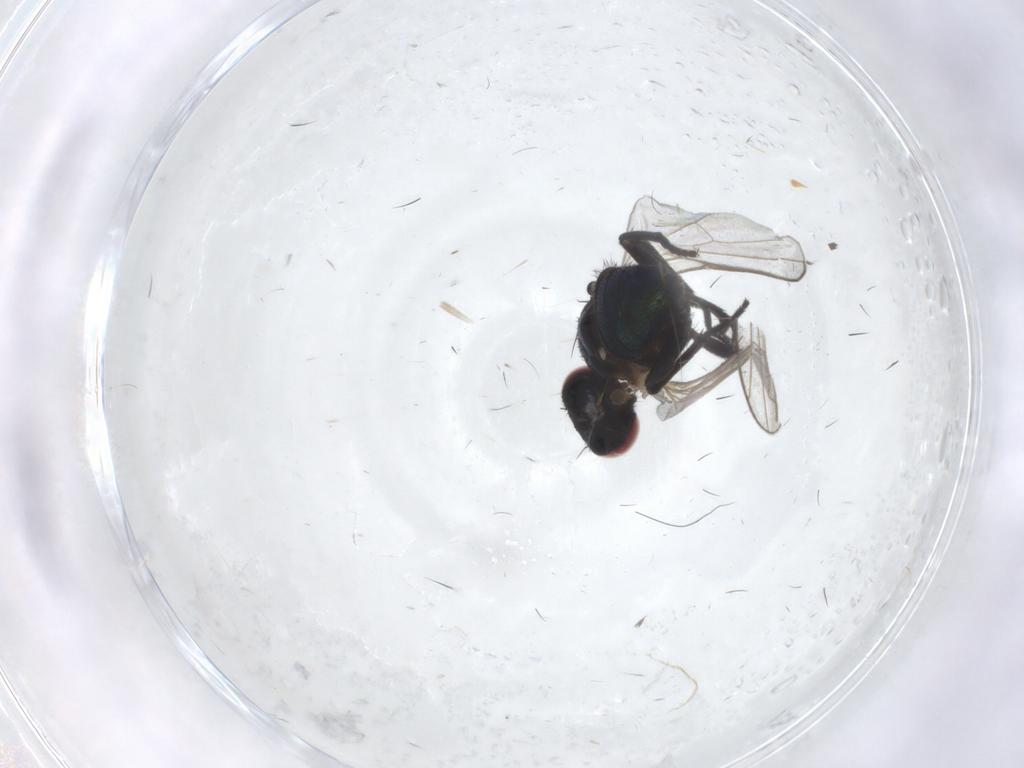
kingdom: Animalia
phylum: Arthropoda
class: Insecta
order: Diptera
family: Agromyzidae
